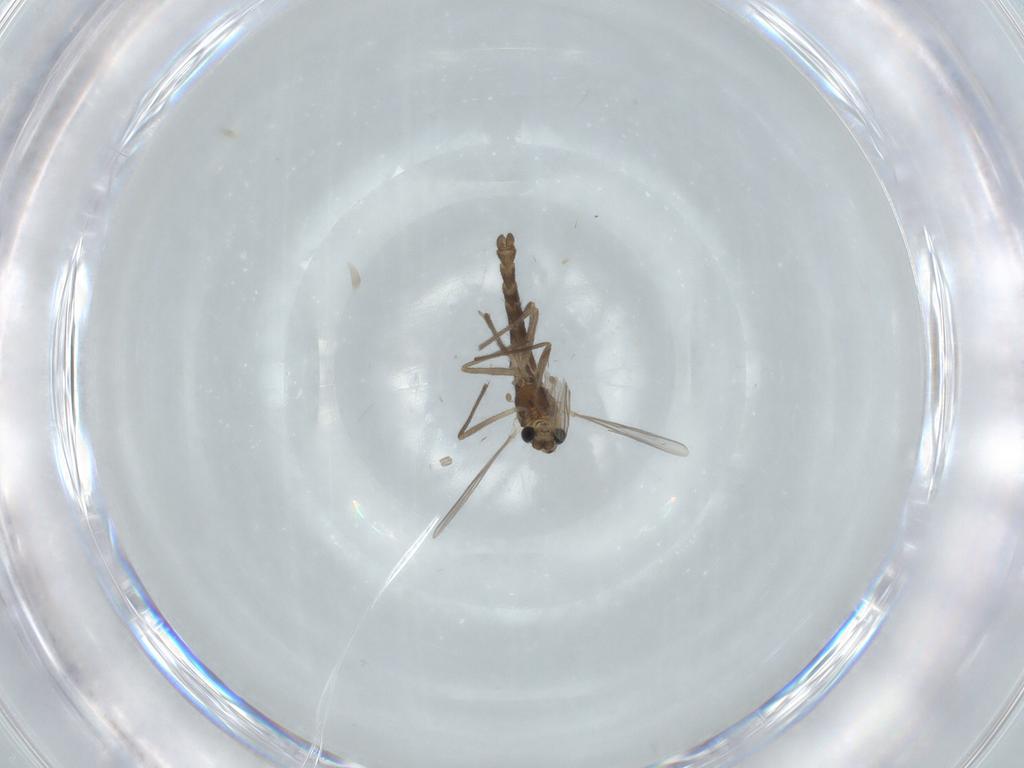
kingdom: Animalia
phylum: Arthropoda
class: Insecta
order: Diptera
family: Chironomidae
